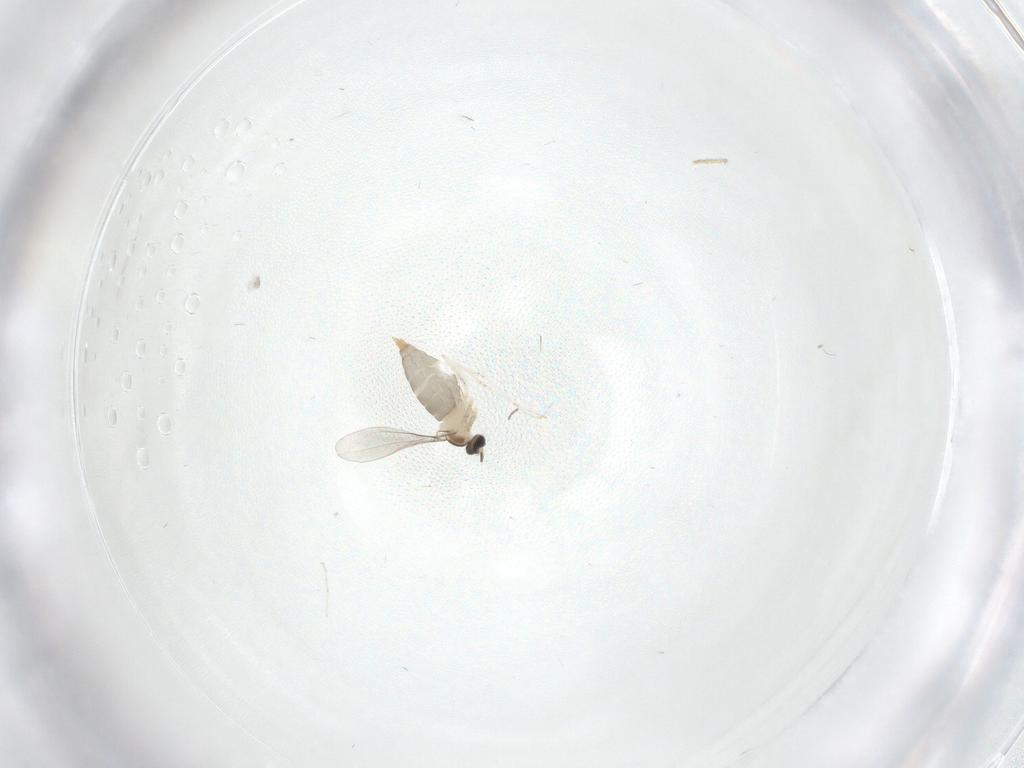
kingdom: Animalia
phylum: Arthropoda
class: Insecta
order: Diptera
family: Cecidomyiidae
